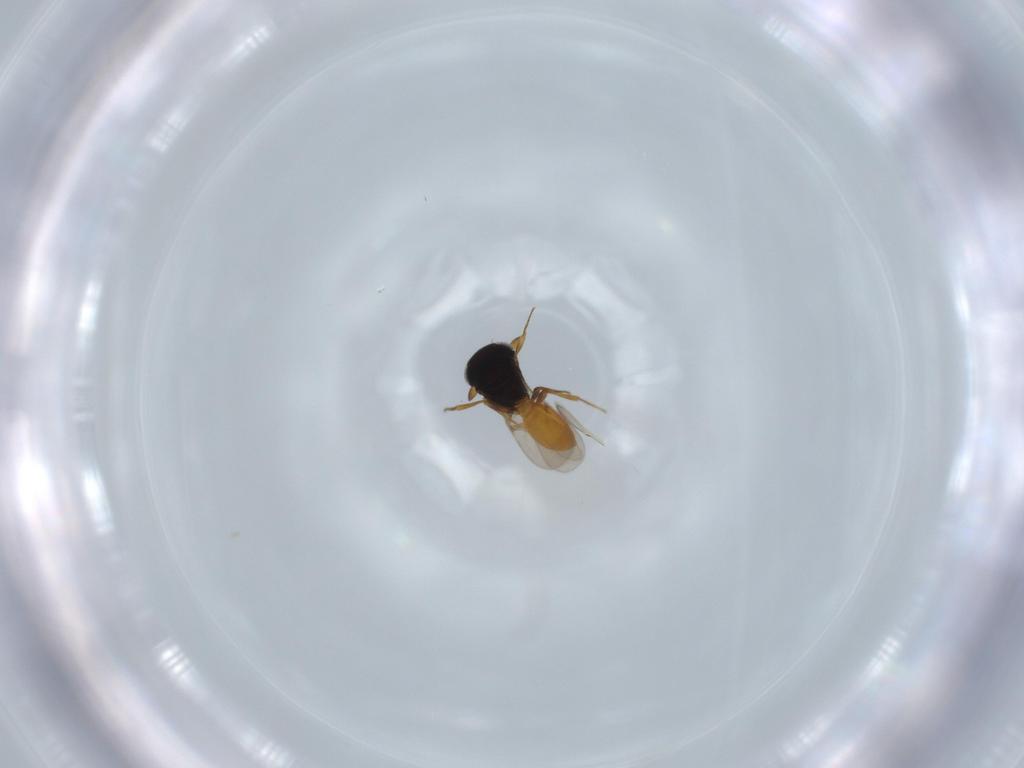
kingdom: Animalia
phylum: Arthropoda
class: Insecta
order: Hymenoptera
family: Scelionidae
